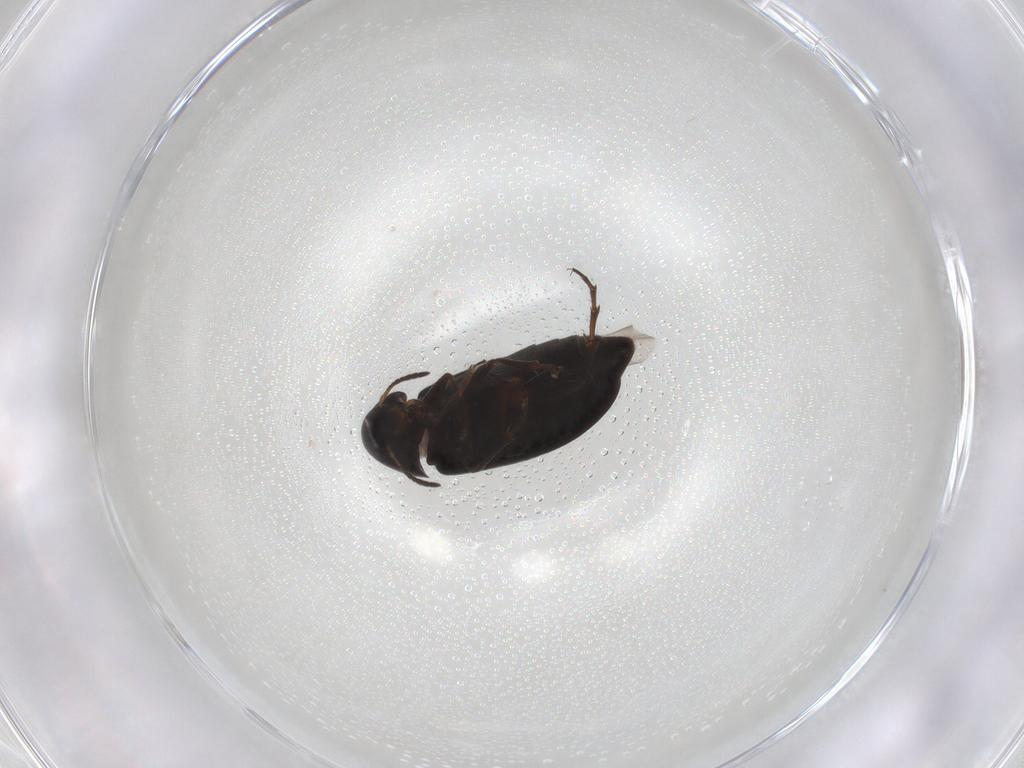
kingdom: Animalia
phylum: Arthropoda
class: Insecta
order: Coleoptera
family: Scraptiidae
